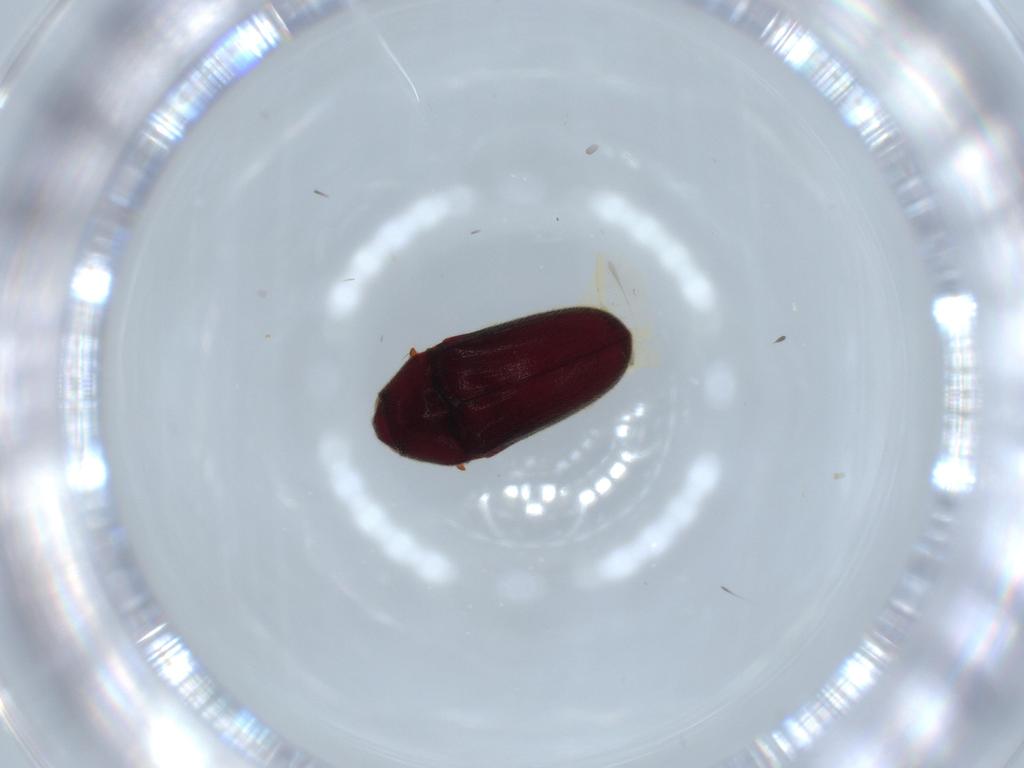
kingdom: Animalia
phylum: Arthropoda
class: Insecta
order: Coleoptera
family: Throscidae
